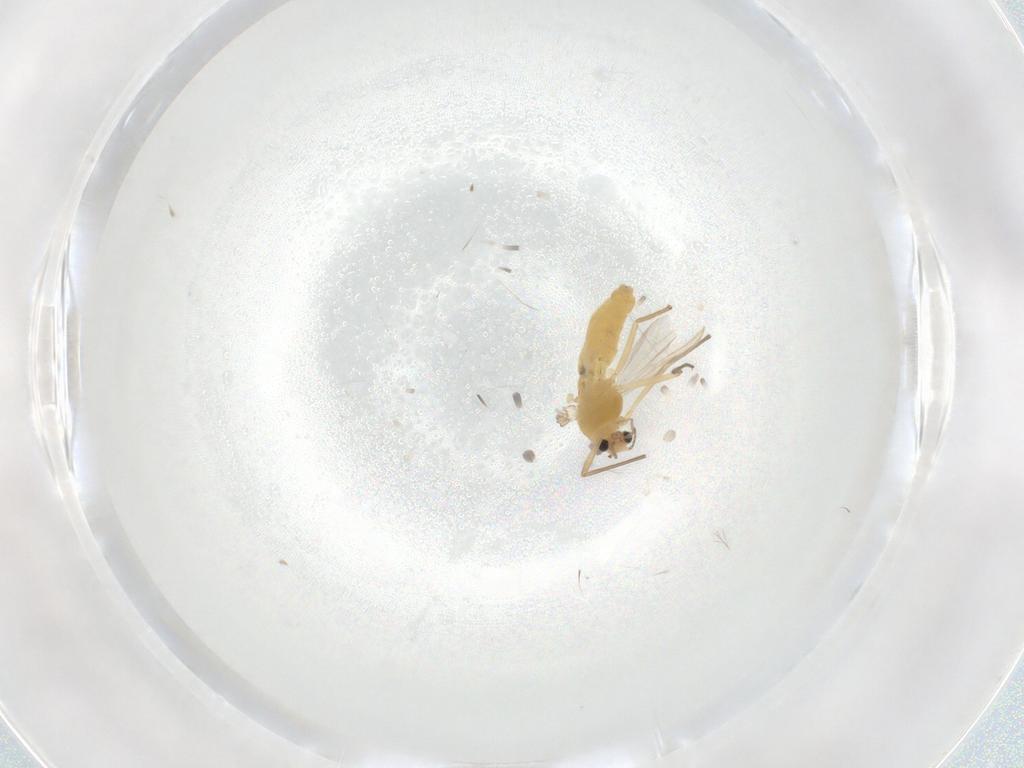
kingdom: Animalia
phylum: Arthropoda
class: Insecta
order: Diptera
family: Chironomidae
